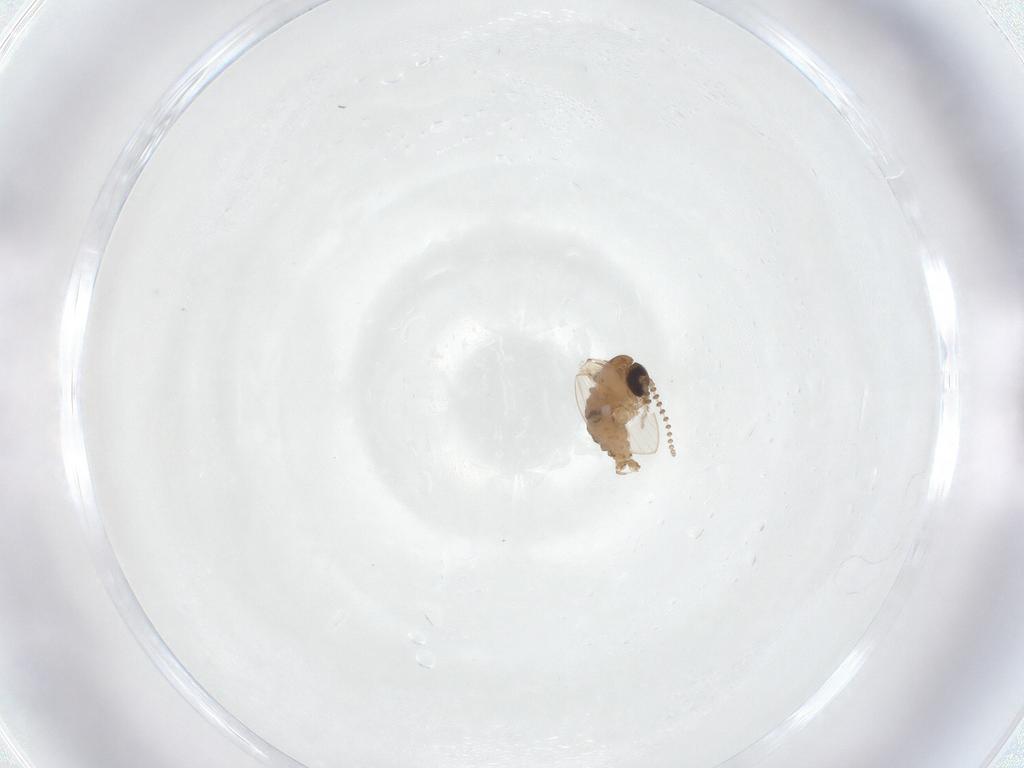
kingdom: Animalia
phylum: Arthropoda
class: Insecta
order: Diptera
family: Psychodidae
